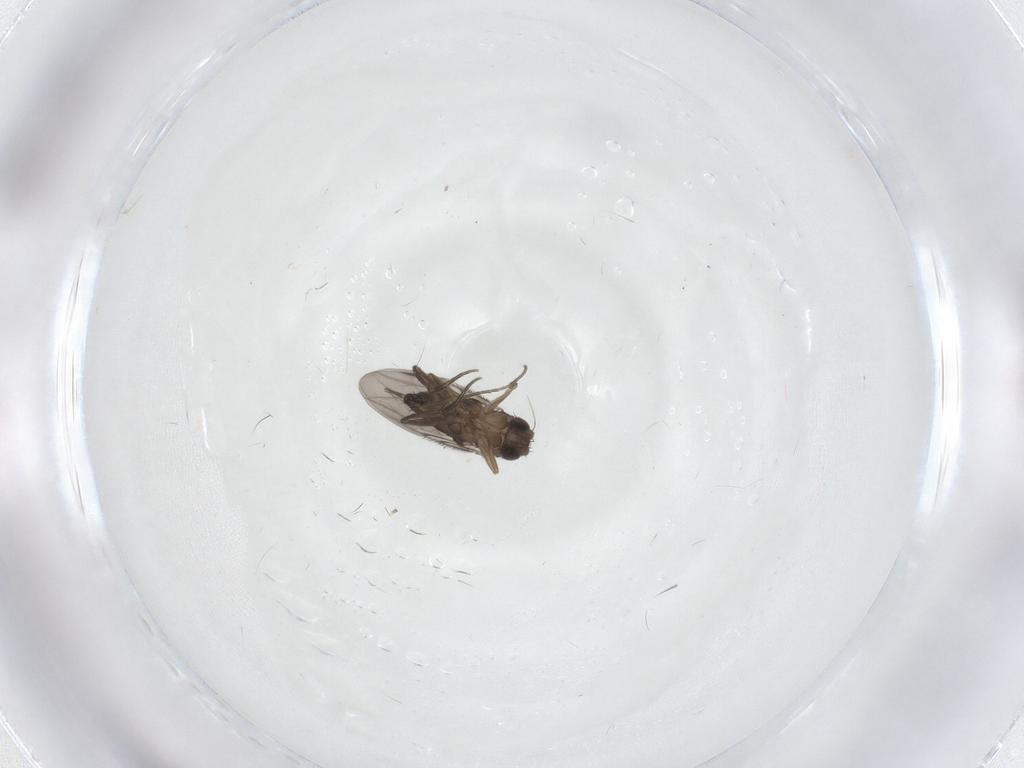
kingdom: Animalia
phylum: Arthropoda
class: Insecta
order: Diptera
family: Phoridae
